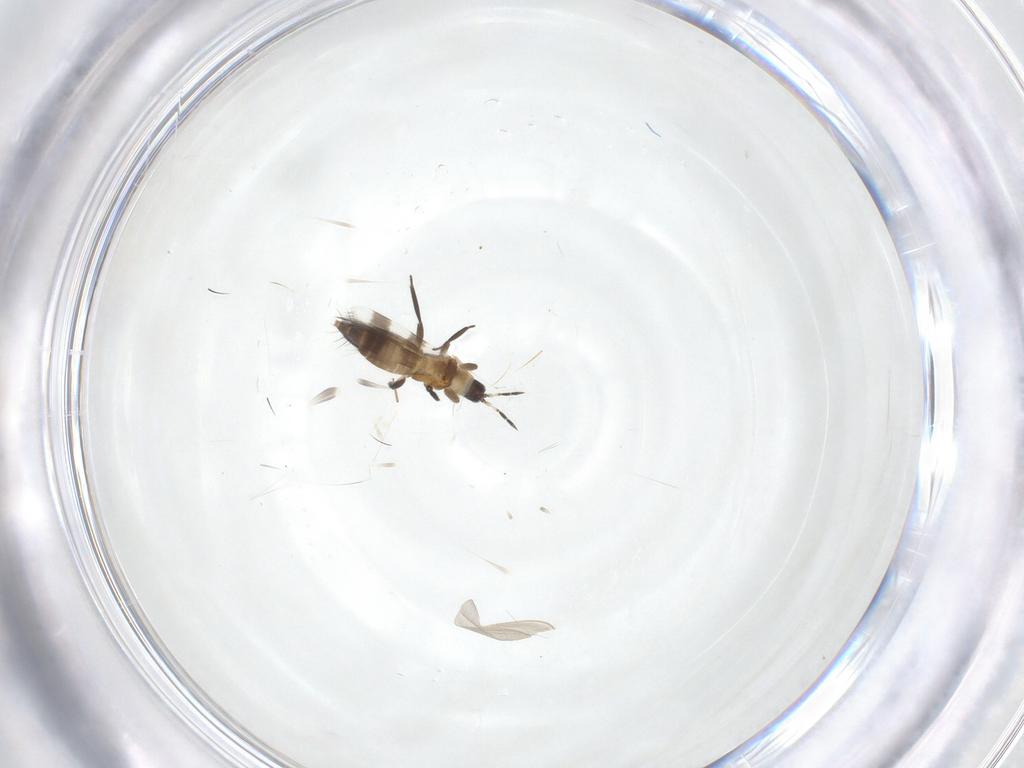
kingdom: Animalia
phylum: Arthropoda
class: Insecta
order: Thysanoptera
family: Aeolothripidae
